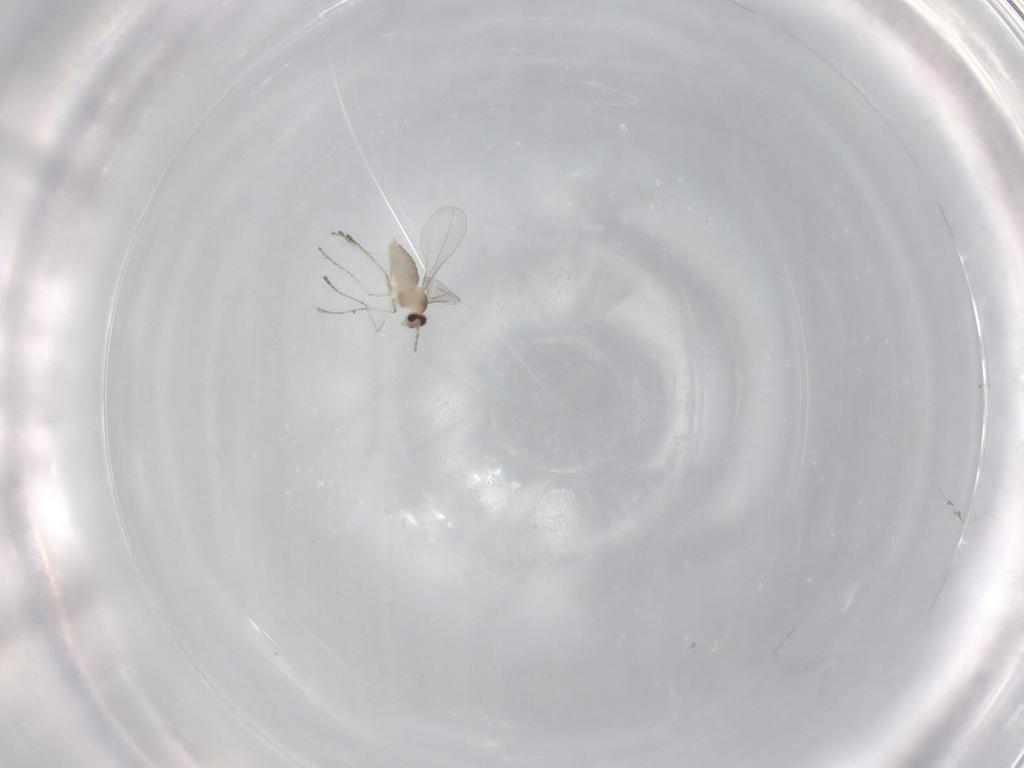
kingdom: Animalia
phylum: Arthropoda
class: Insecta
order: Diptera
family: Cecidomyiidae
